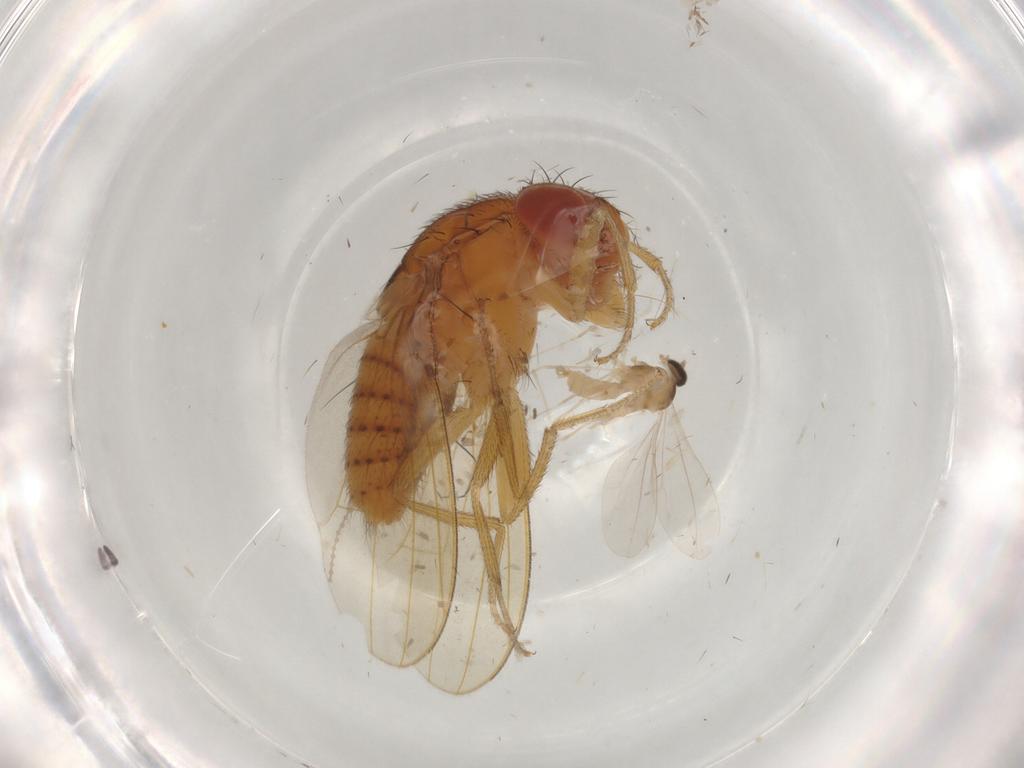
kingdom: Animalia
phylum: Arthropoda
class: Insecta
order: Diptera
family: Drosophilidae
